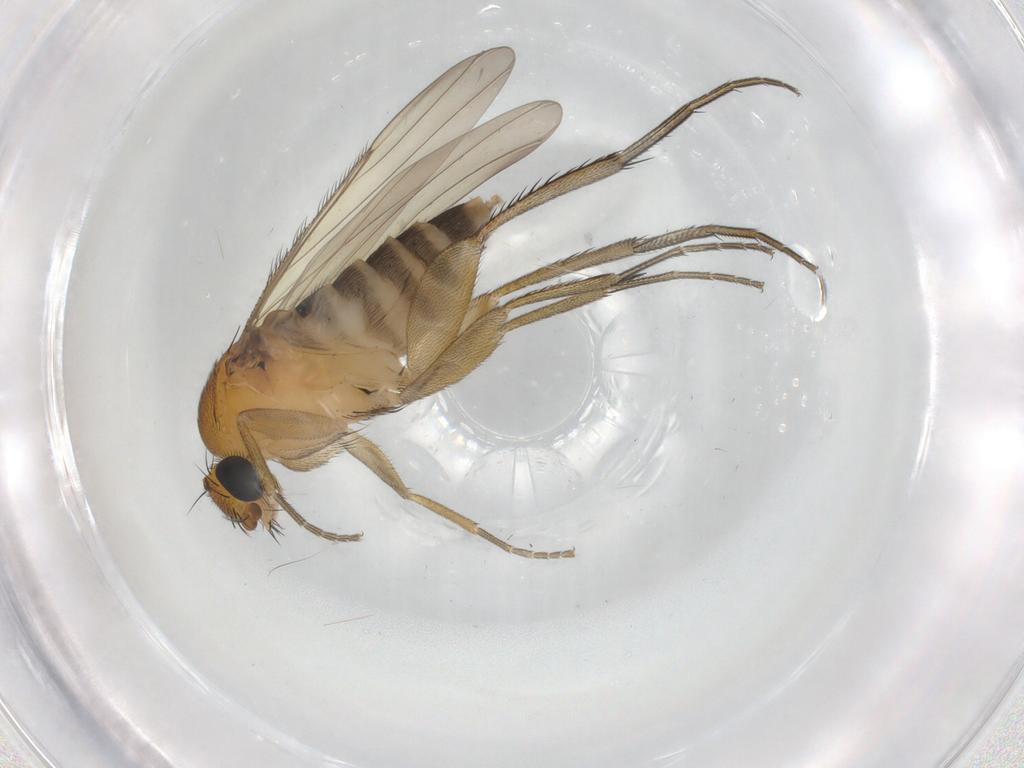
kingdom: Animalia
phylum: Arthropoda
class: Insecta
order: Diptera
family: Phoridae
